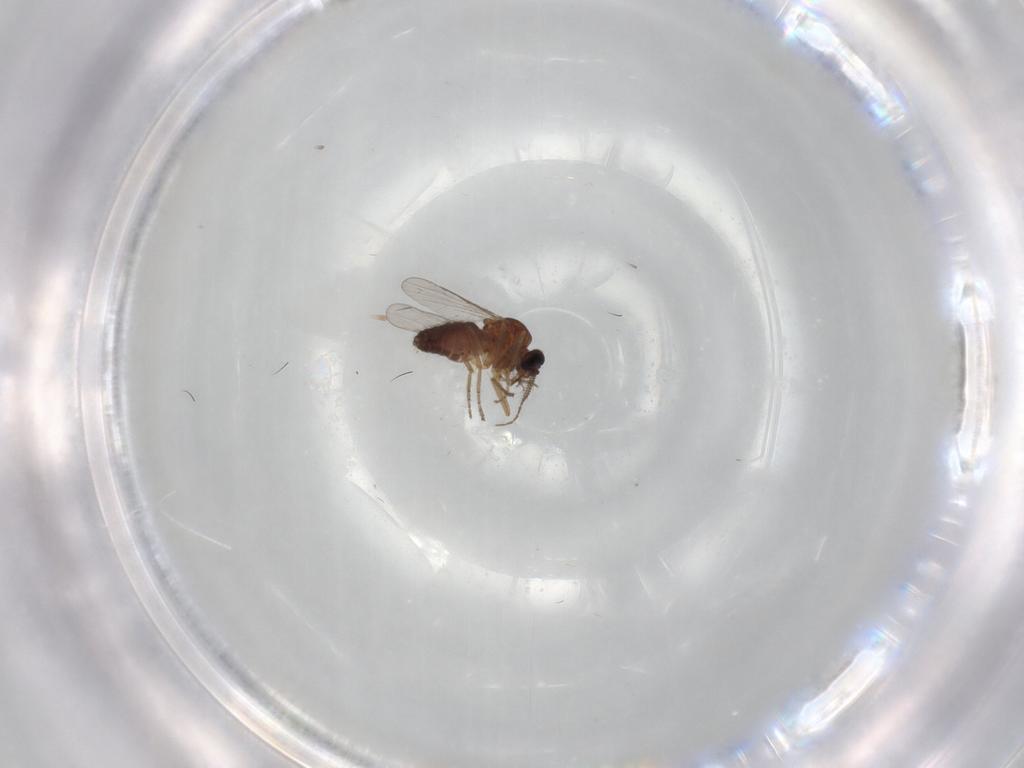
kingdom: Animalia
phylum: Arthropoda
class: Insecta
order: Diptera
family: Ceratopogonidae
